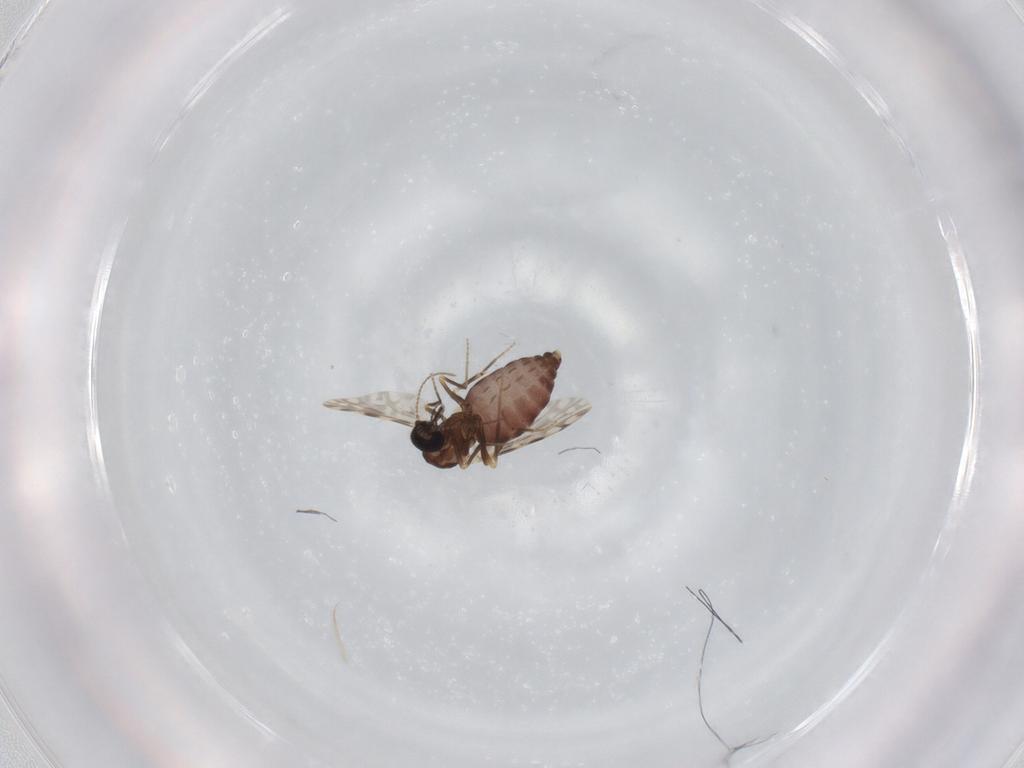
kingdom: Animalia
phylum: Arthropoda
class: Insecta
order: Diptera
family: Ceratopogonidae
